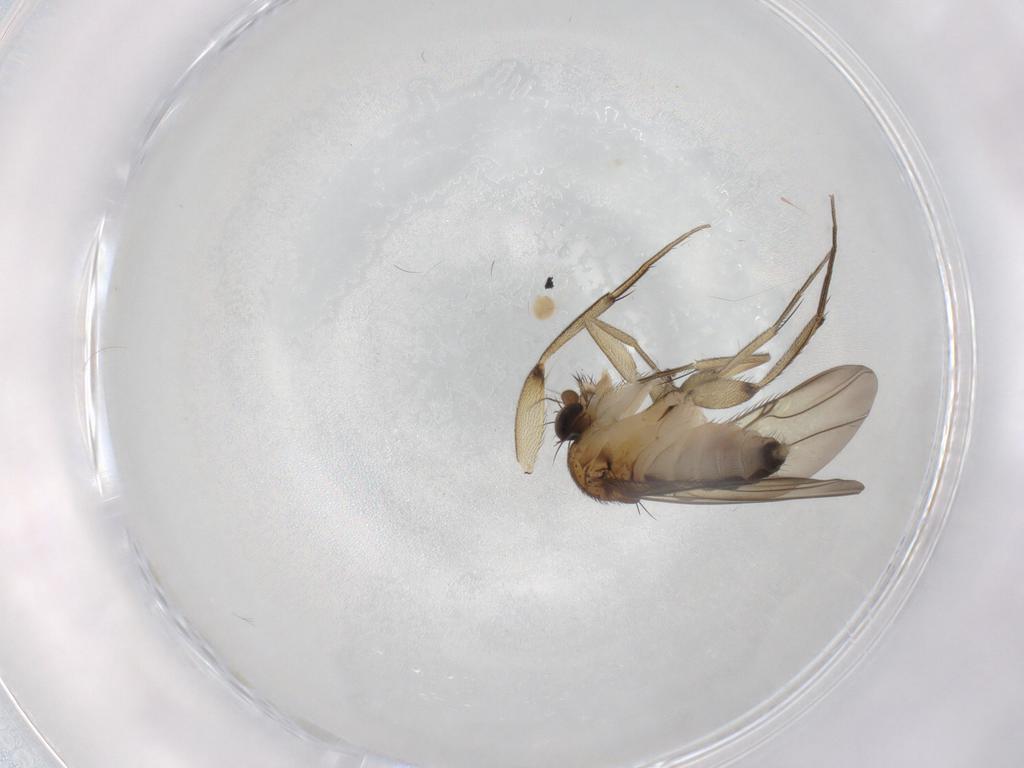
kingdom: Animalia
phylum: Arthropoda
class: Insecta
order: Diptera
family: Phoridae
